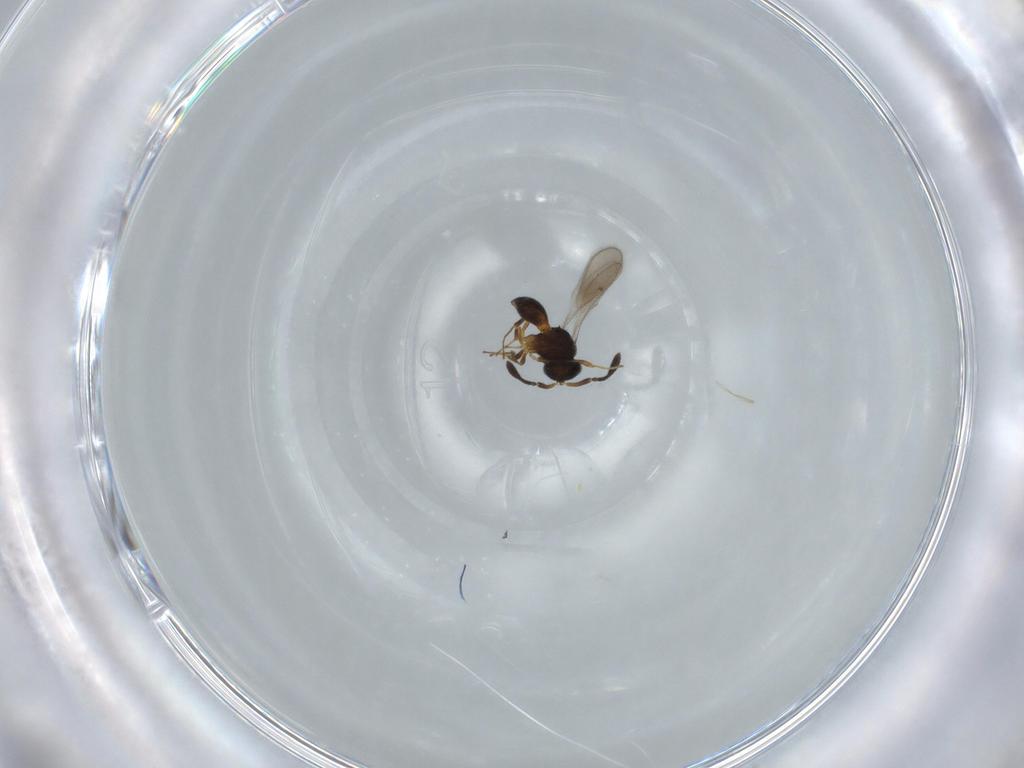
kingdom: Animalia
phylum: Arthropoda
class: Insecta
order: Hymenoptera
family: Scelionidae
